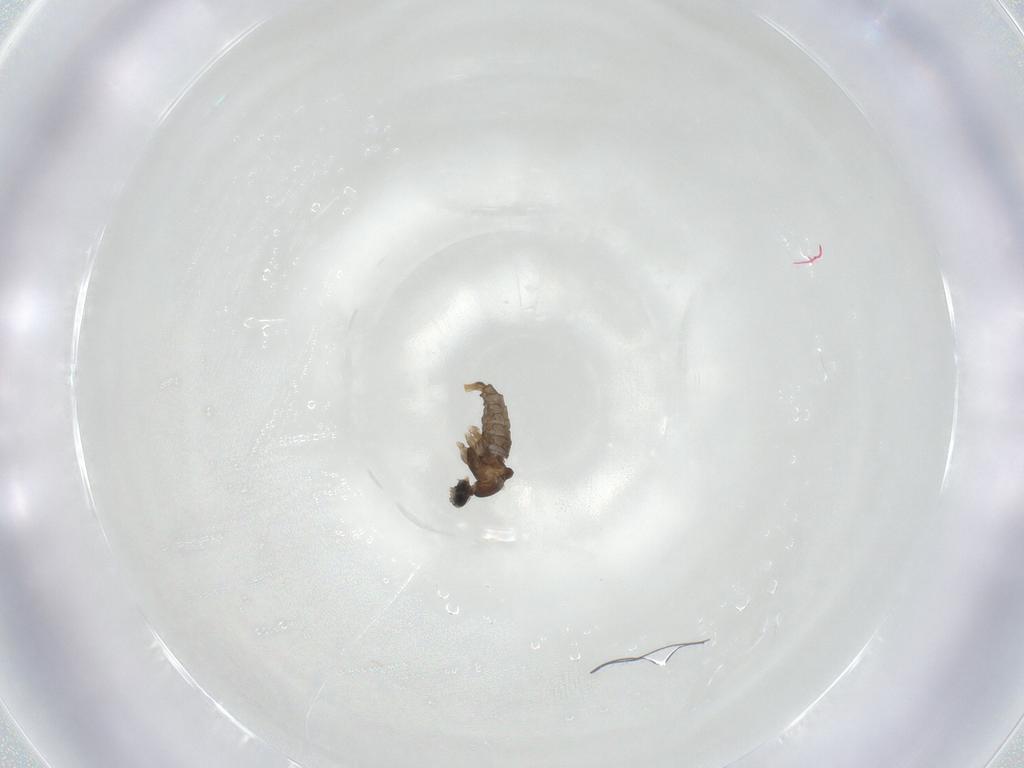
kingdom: Animalia
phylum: Arthropoda
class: Insecta
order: Diptera
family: Cecidomyiidae
